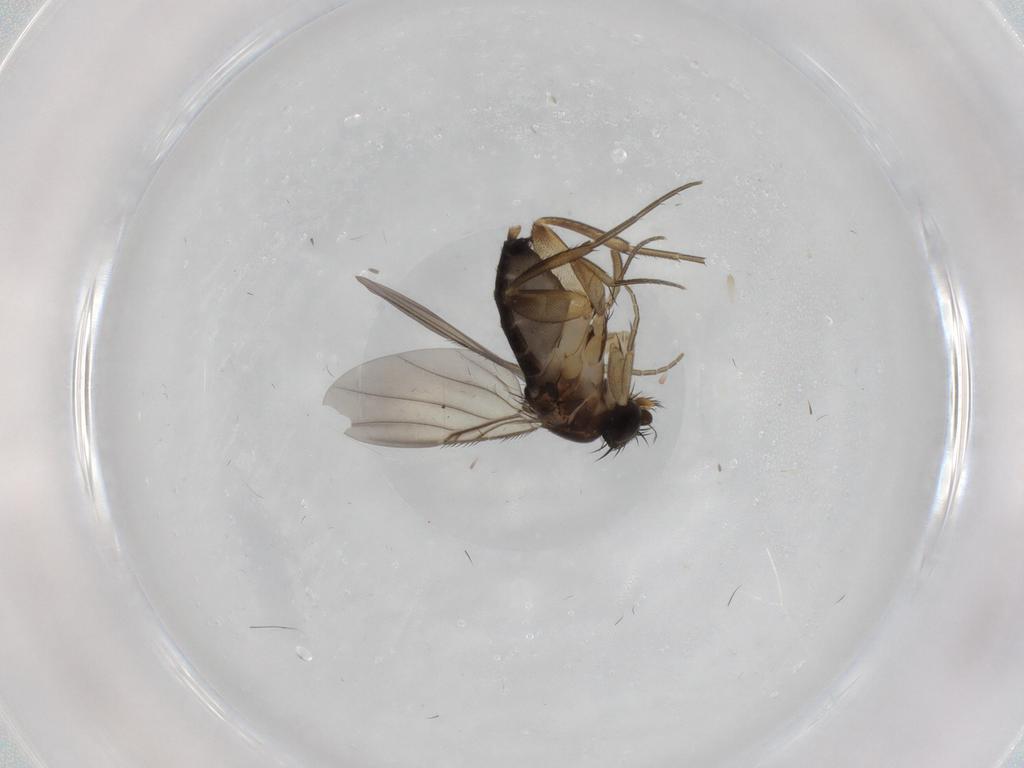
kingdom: Animalia
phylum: Arthropoda
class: Insecta
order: Diptera
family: Phoridae
